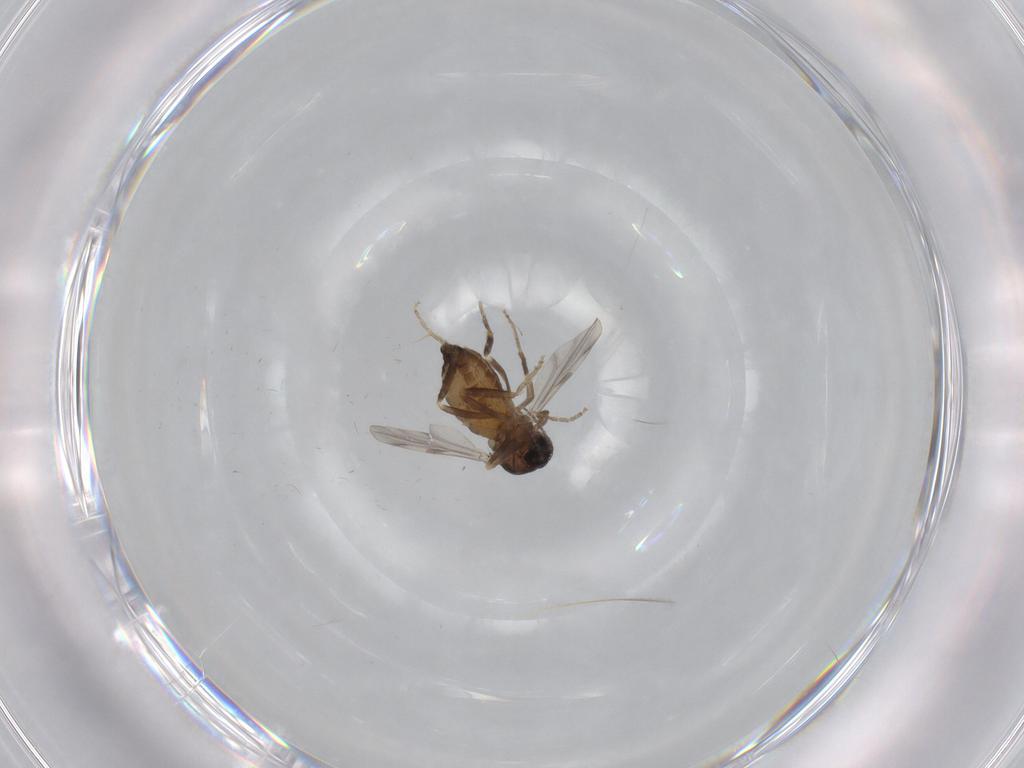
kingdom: Animalia
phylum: Arthropoda
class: Insecta
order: Diptera
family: Ceratopogonidae
